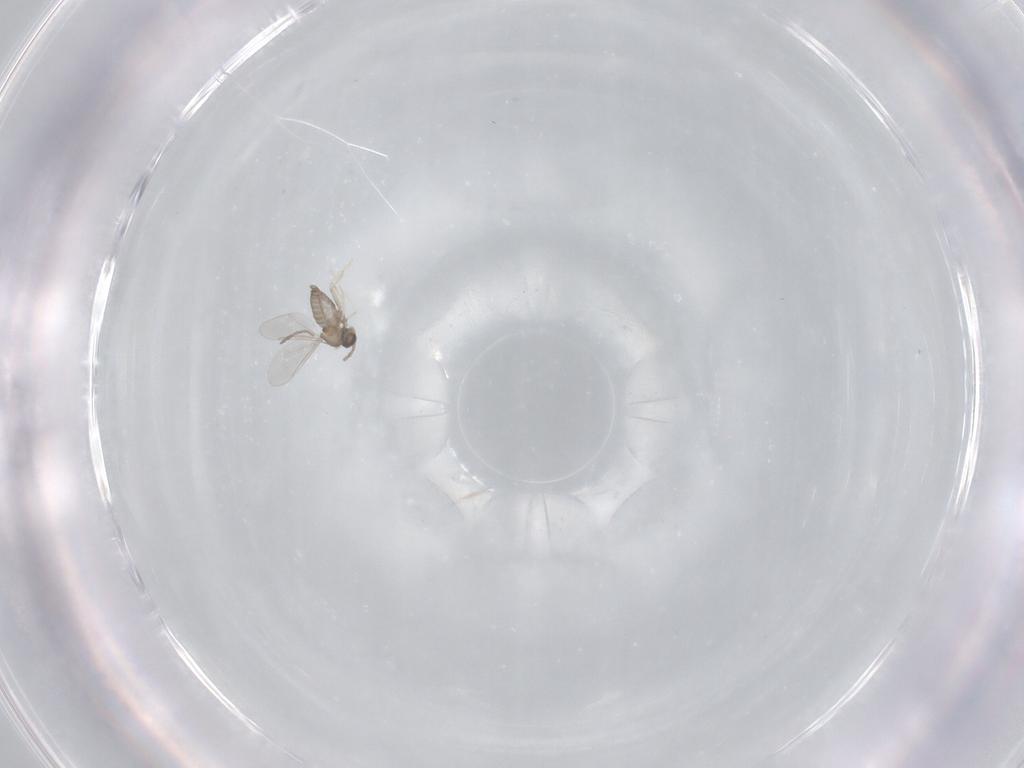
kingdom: Animalia
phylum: Arthropoda
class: Insecta
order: Diptera
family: Cecidomyiidae
